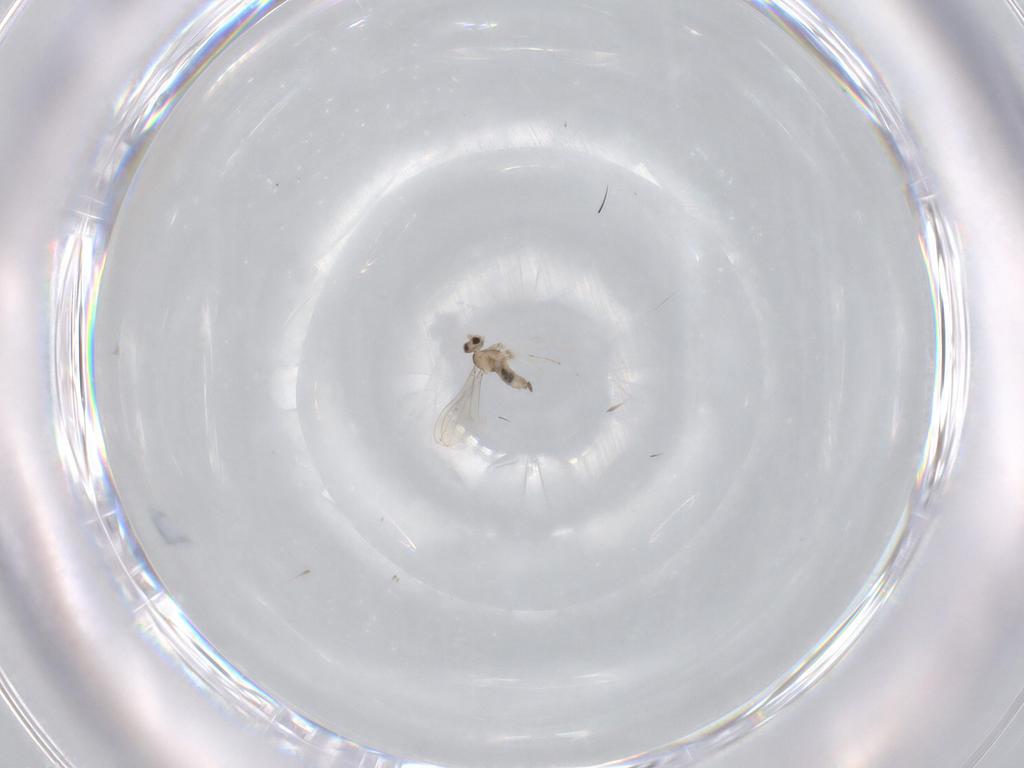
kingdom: Animalia
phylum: Arthropoda
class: Insecta
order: Diptera
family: Cecidomyiidae
